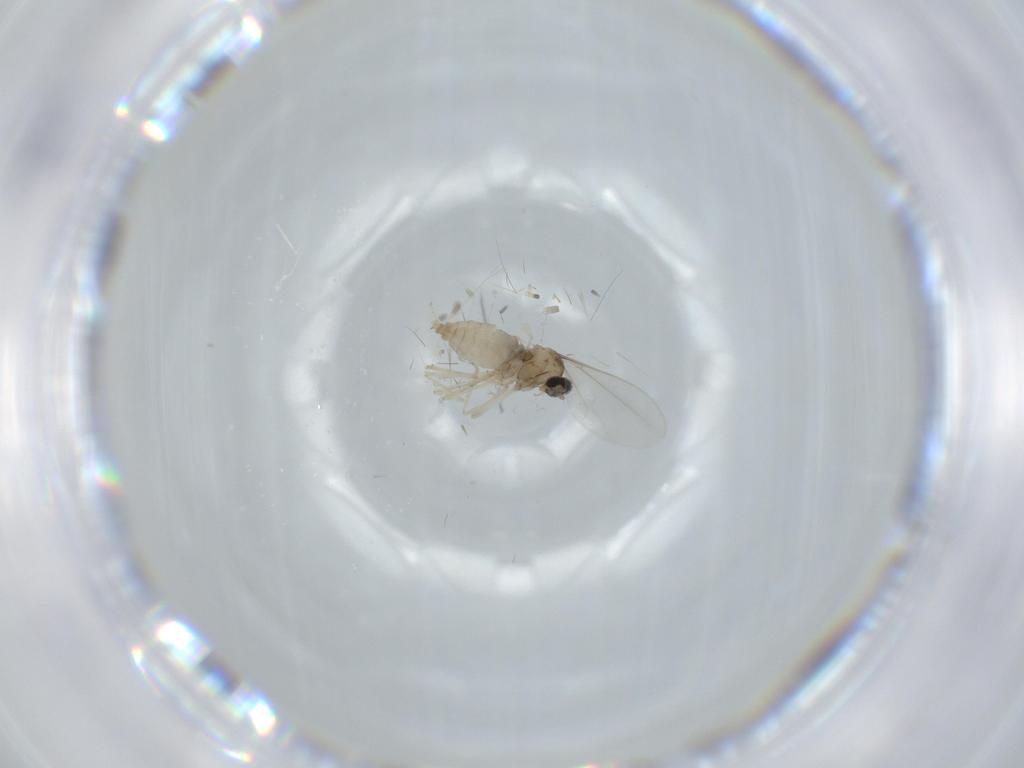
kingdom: Animalia
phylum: Arthropoda
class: Insecta
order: Diptera
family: Cecidomyiidae
